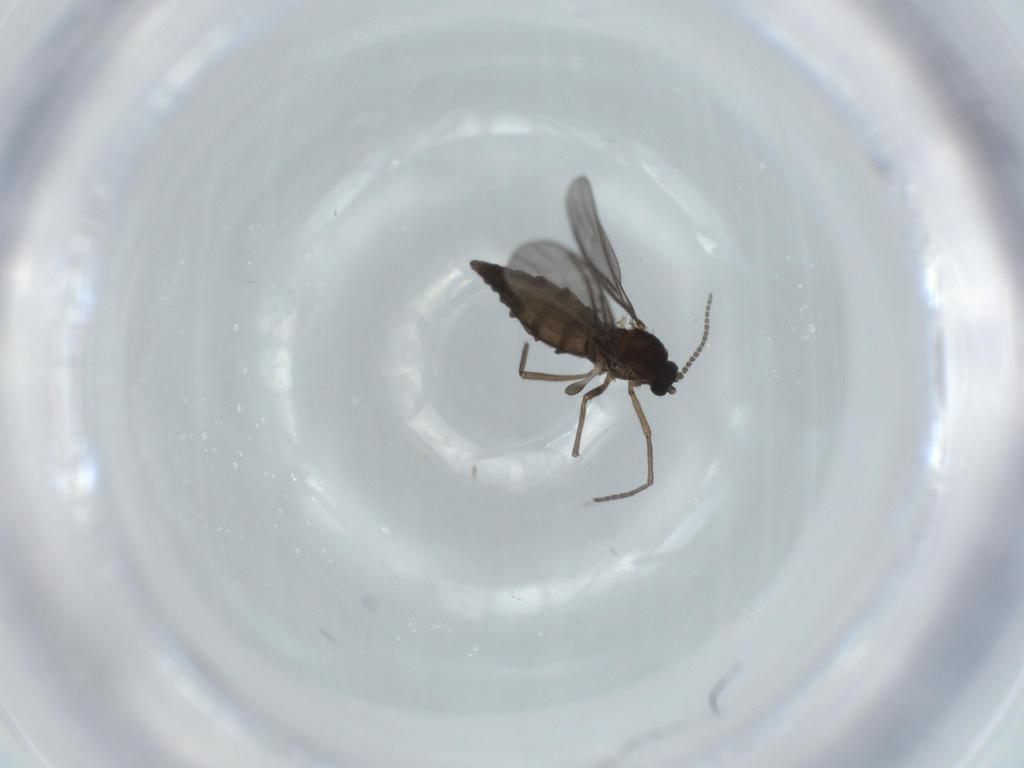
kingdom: Animalia
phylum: Arthropoda
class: Insecta
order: Diptera
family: Sciaridae
